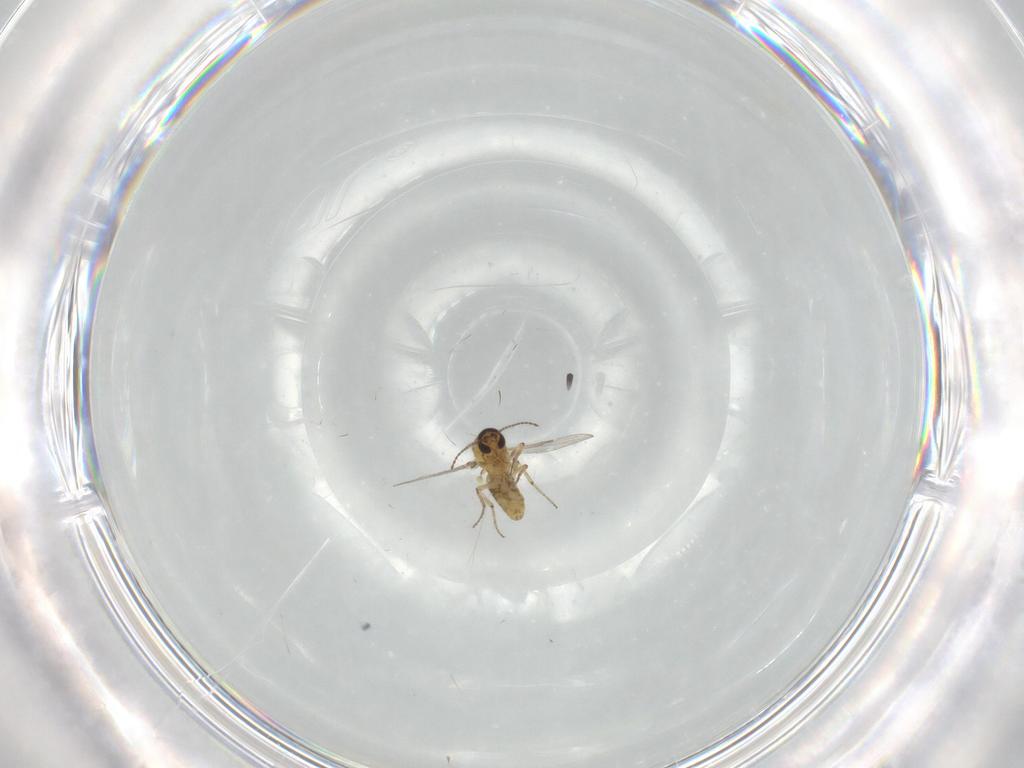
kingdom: Animalia
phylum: Arthropoda
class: Insecta
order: Diptera
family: Ceratopogonidae
